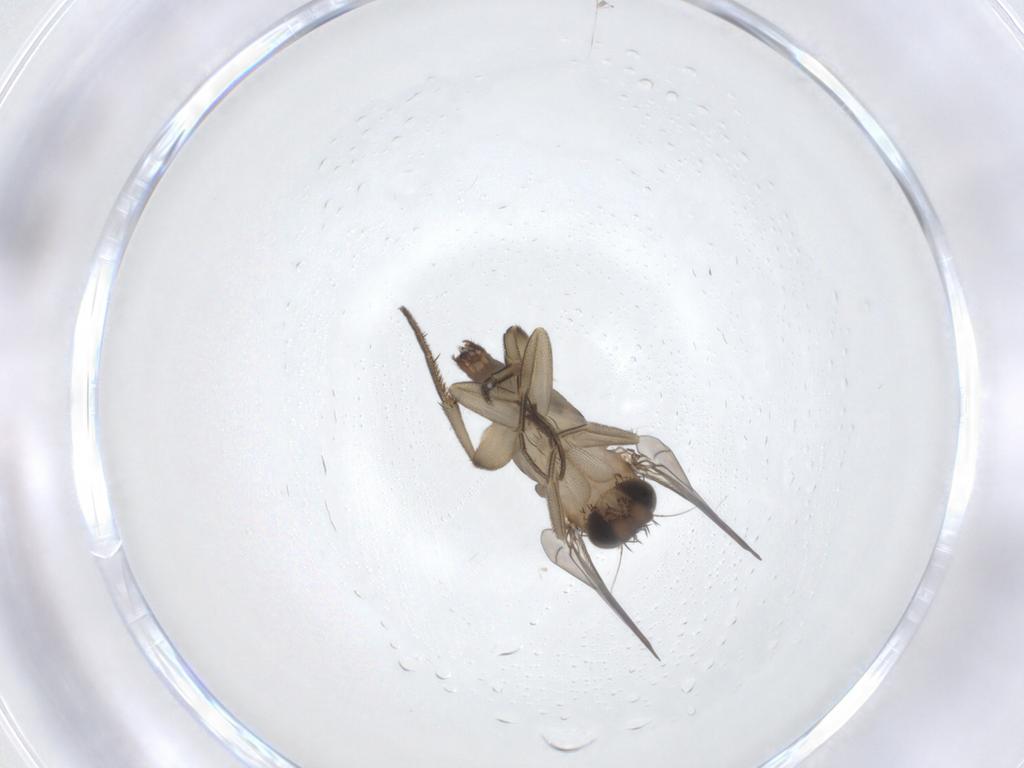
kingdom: Animalia
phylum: Arthropoda
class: Insecta
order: Diptera
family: Phoridae
